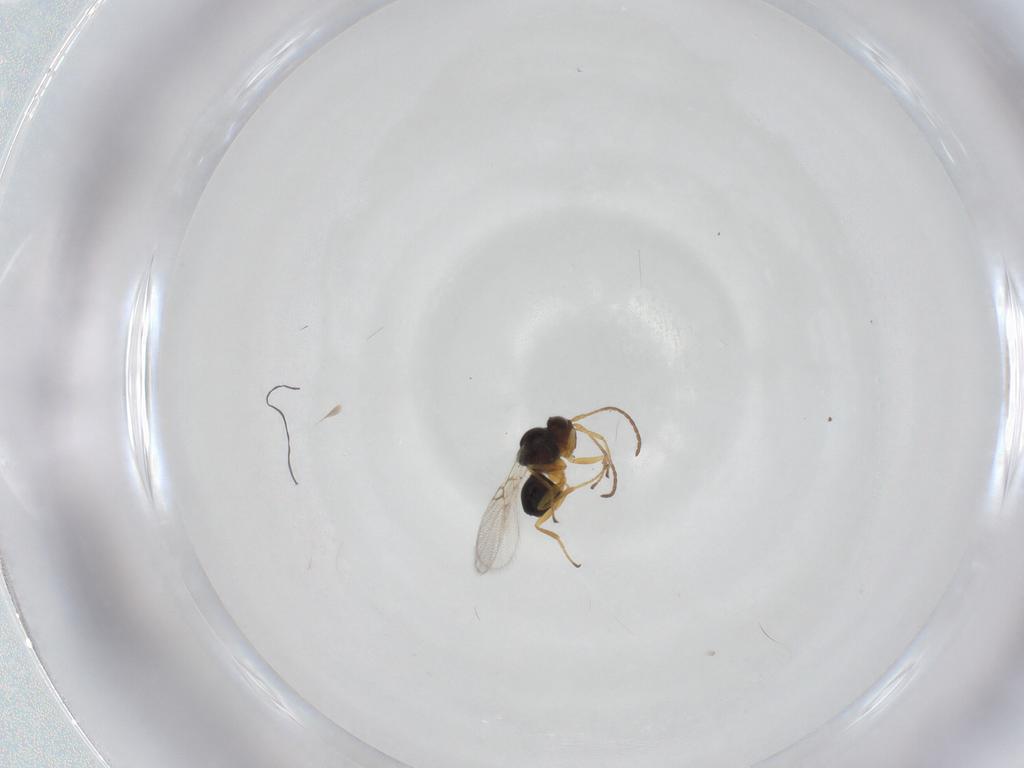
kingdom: Animalia
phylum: Arthropoda
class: Insecta
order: Hymenoptera
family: Figitidae
